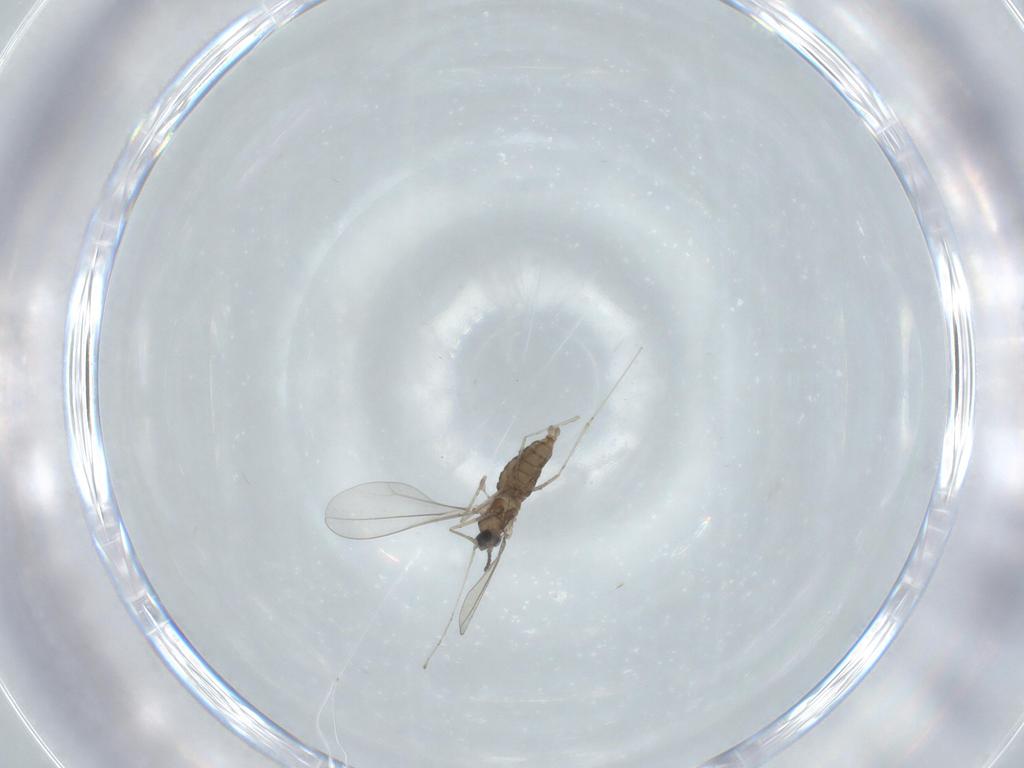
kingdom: Animalia
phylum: Arthropoda
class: Insecta
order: Diptera
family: Cecidomyiidae
